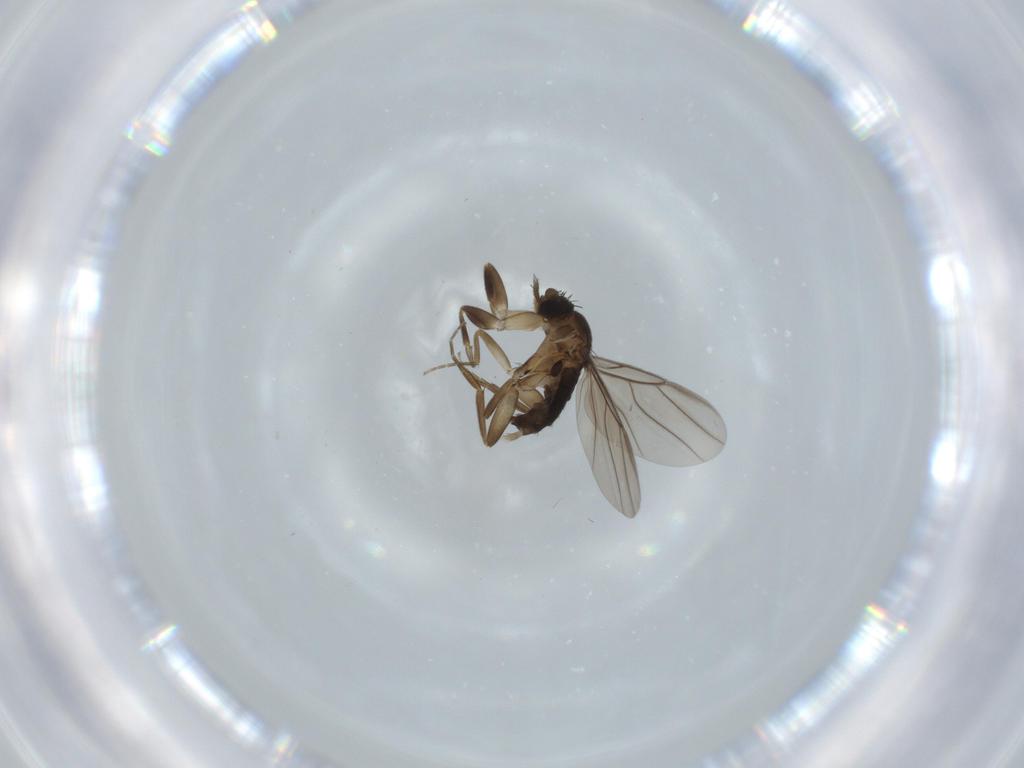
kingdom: Animalia
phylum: Arthropoda
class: Insecta
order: Diptera
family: Chironomidae
